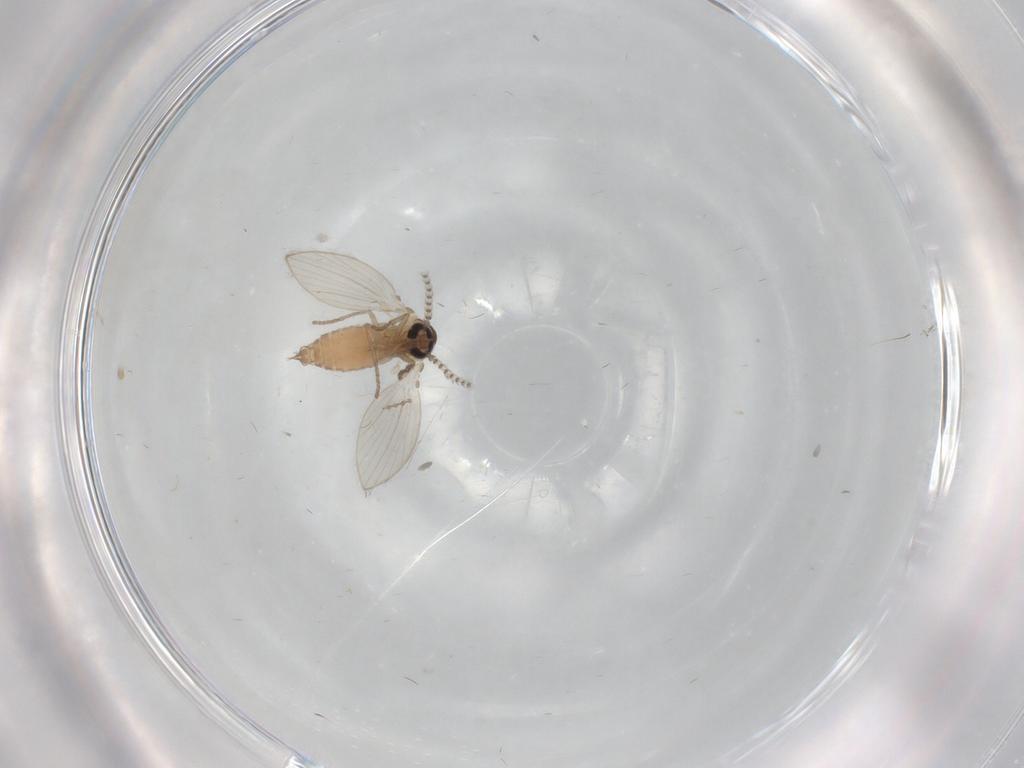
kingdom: Animalia
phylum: Arthropoda
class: Insecta
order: Diptera
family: Psychodidae
